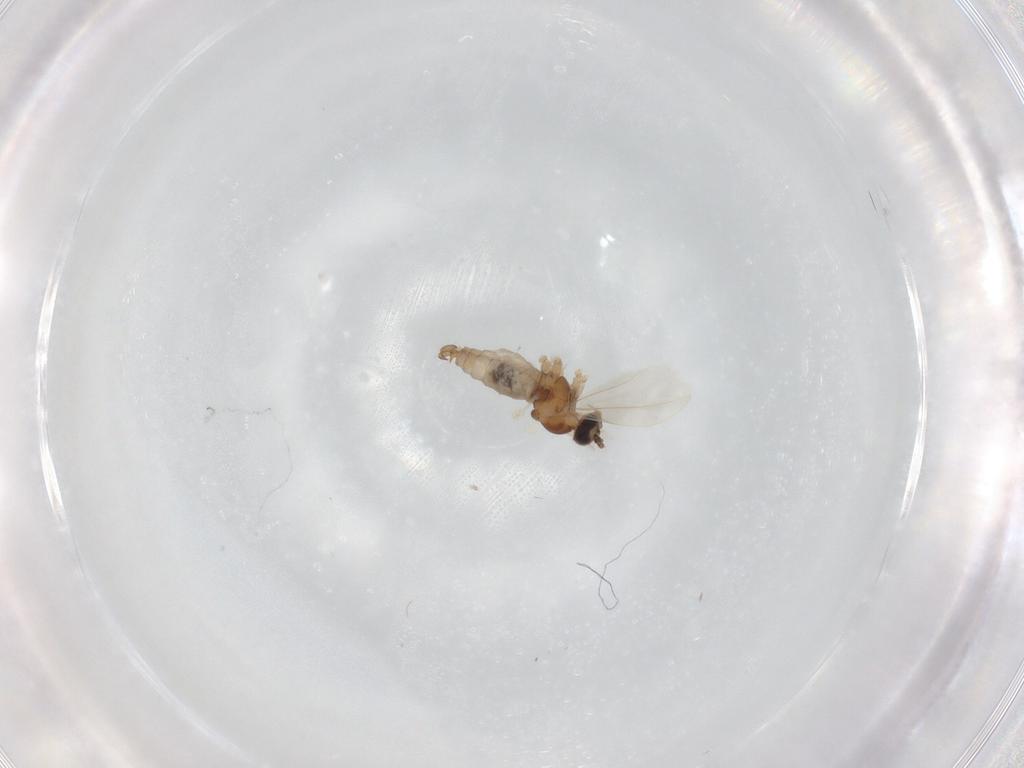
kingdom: Animalia
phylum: Arthropoda
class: Insecta
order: Diptera
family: Cecidomyiidae
